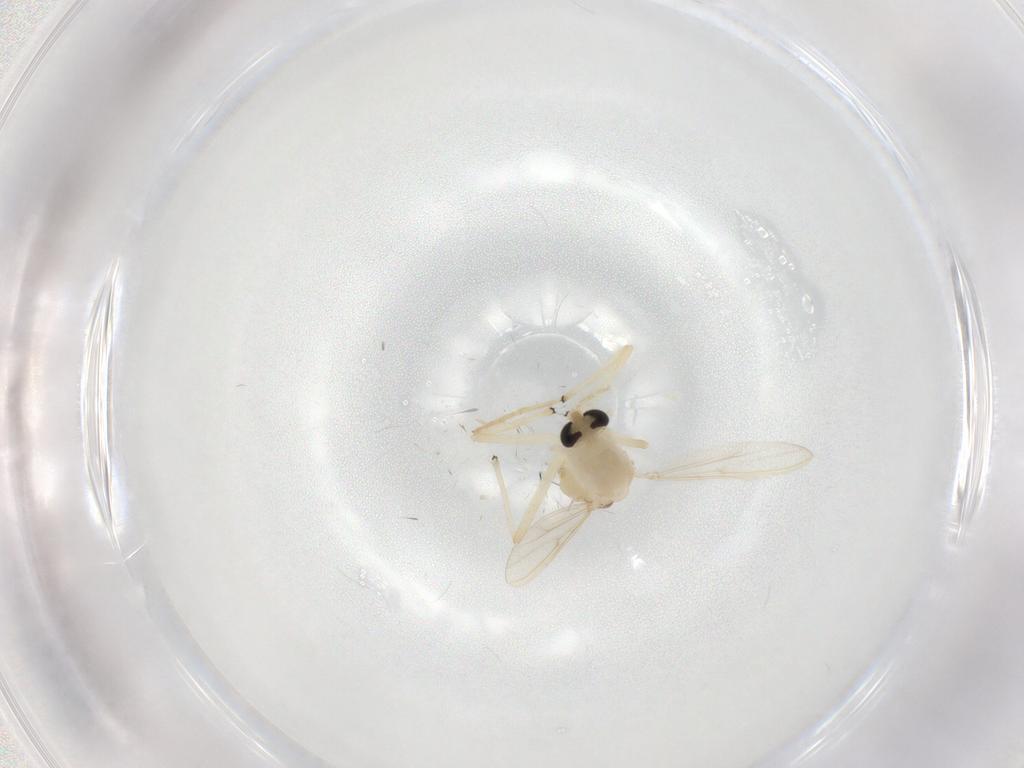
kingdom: Animalia
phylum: Arthropoda
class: Insecta
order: Diptera
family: Chironomidae
